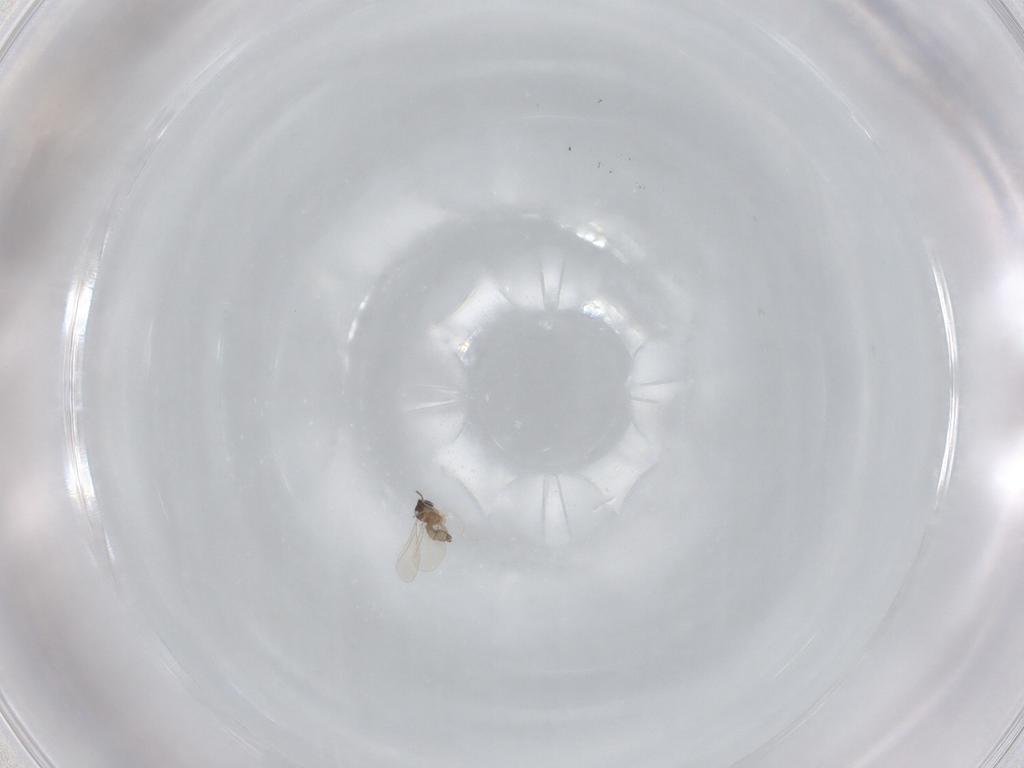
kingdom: Animalia
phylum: Arthropoda
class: Insecta
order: Diptera
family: Cecidomyiidae
